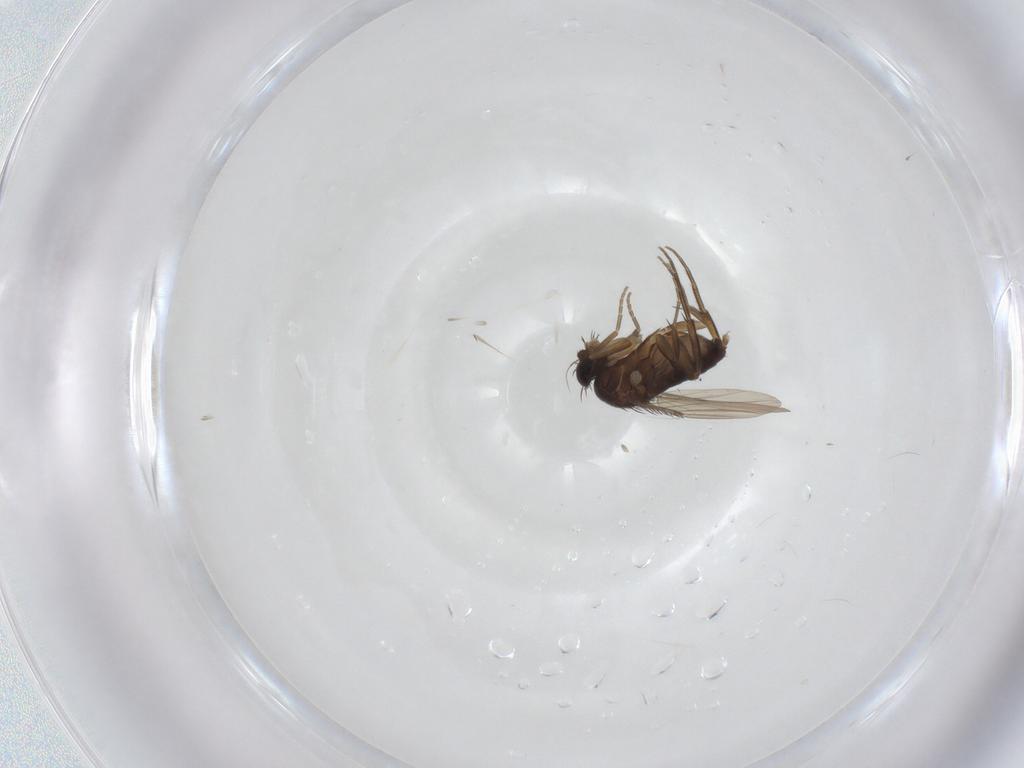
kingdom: Animalia
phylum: Arthropoda
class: Insecta
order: Diptera
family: Phoridae
